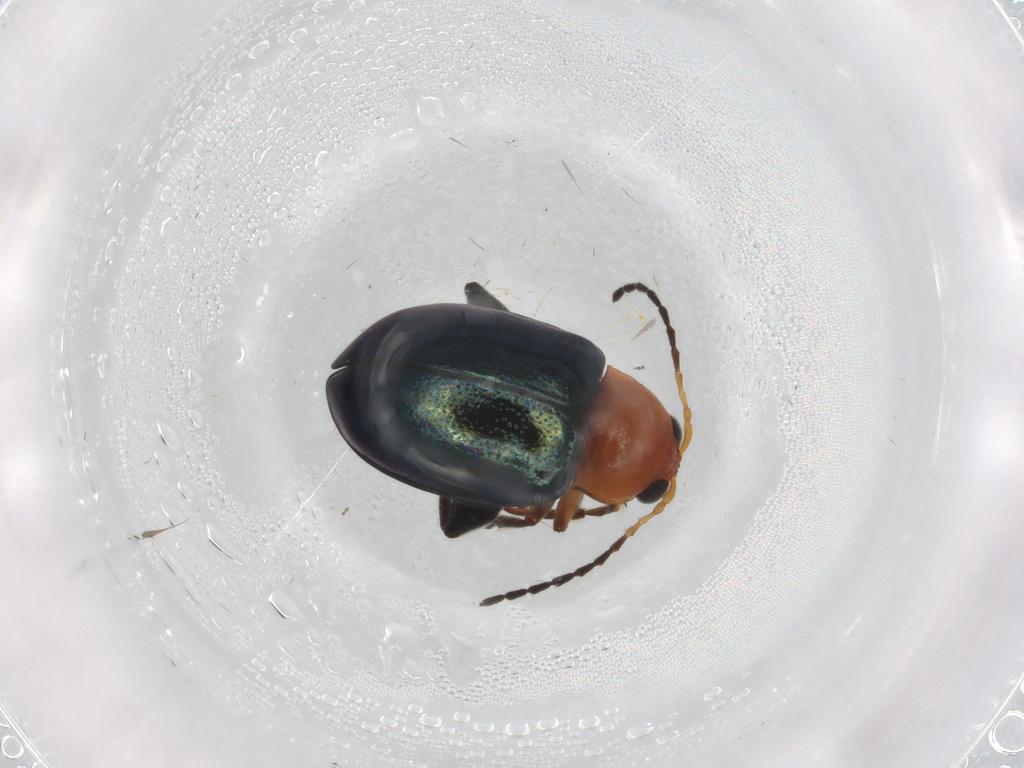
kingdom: Animalia
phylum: Arthropoda
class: Insecta
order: Coleoptera
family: Chrysomelidae
